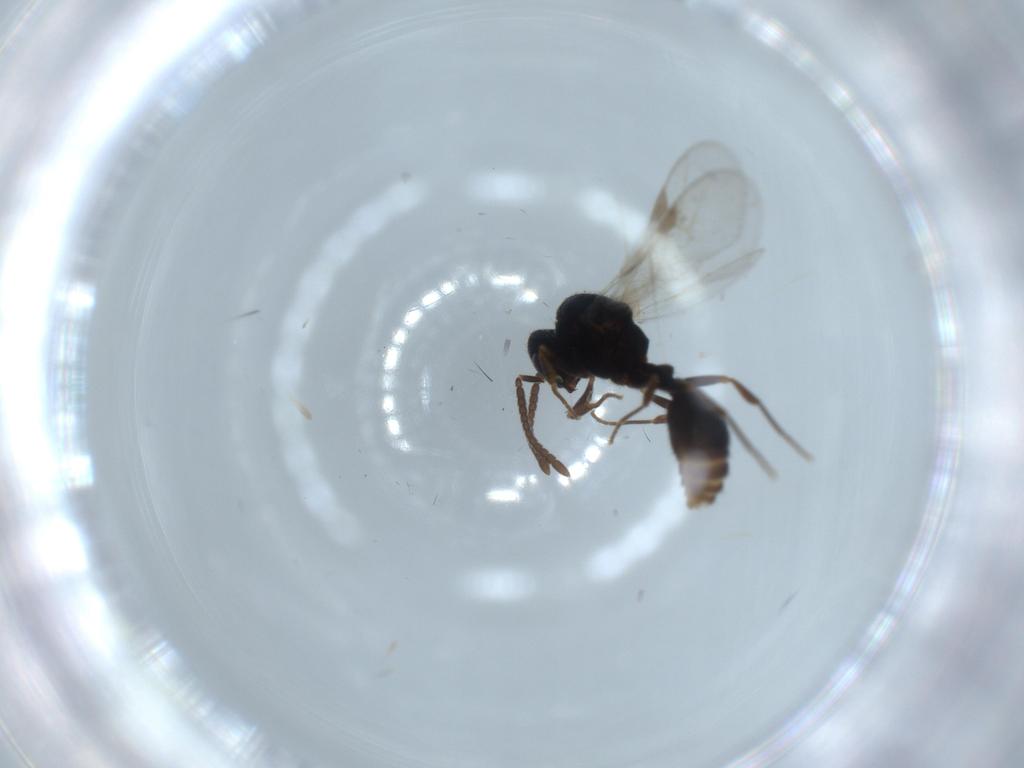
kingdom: Animalia
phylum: Arthropoda
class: Insecta
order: Hymenoptera
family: Formicidae
